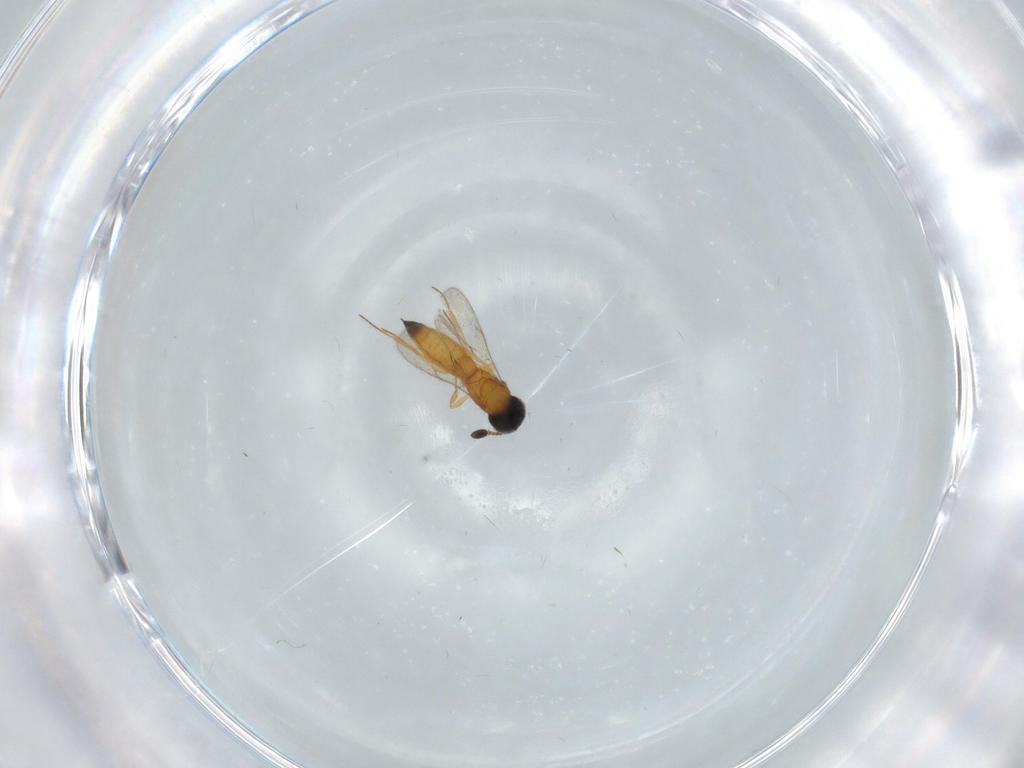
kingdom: Animalia
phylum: Arthropoda
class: Insecta
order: Hymenoptera
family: Scelionidae
